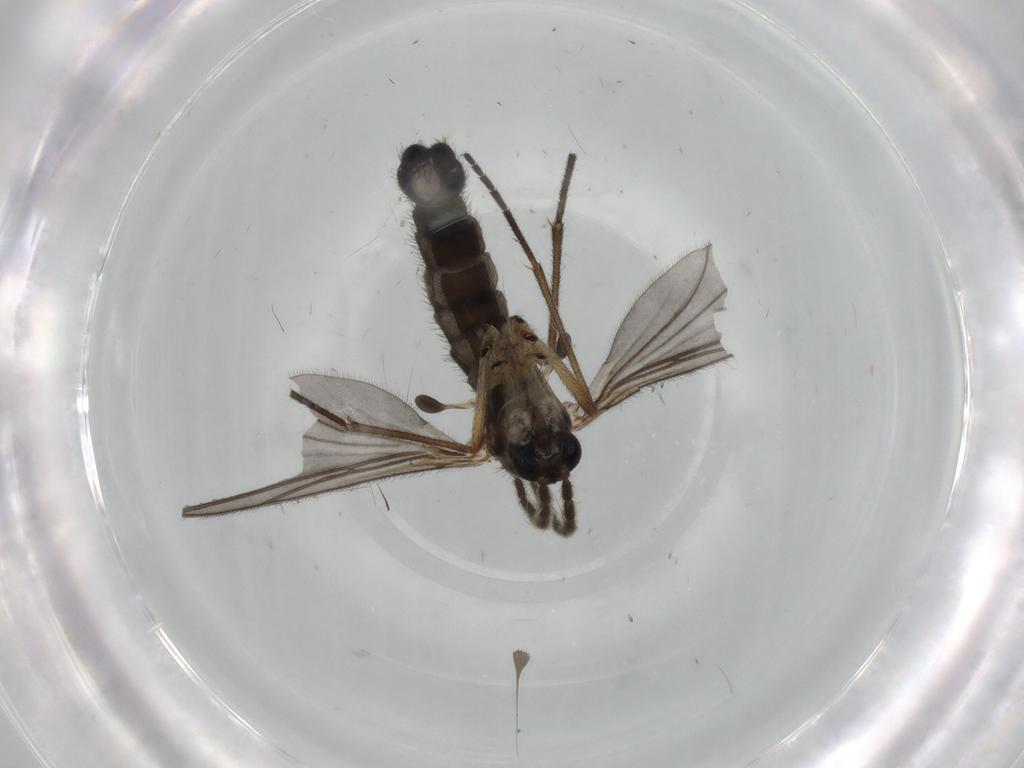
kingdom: Animalia
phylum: Arthropoda
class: Insecta
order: Diptera
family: Sciaridae
